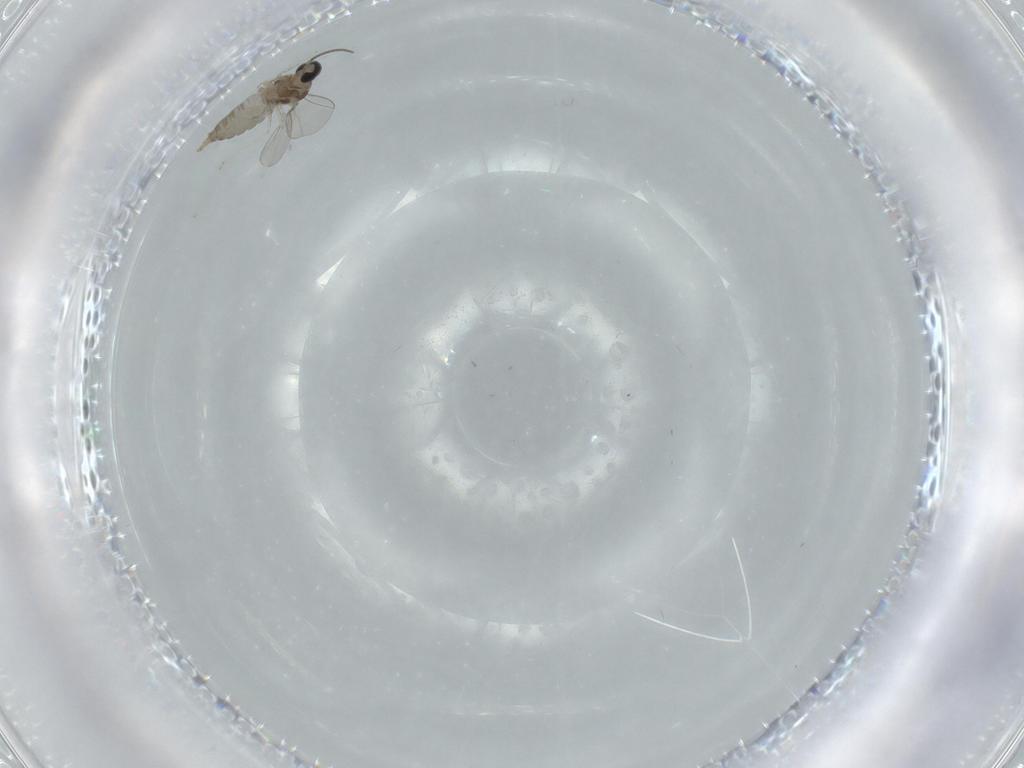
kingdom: Animalia
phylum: Arthropoda
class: Insecta
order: Diptera
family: Cecidomyiidae
